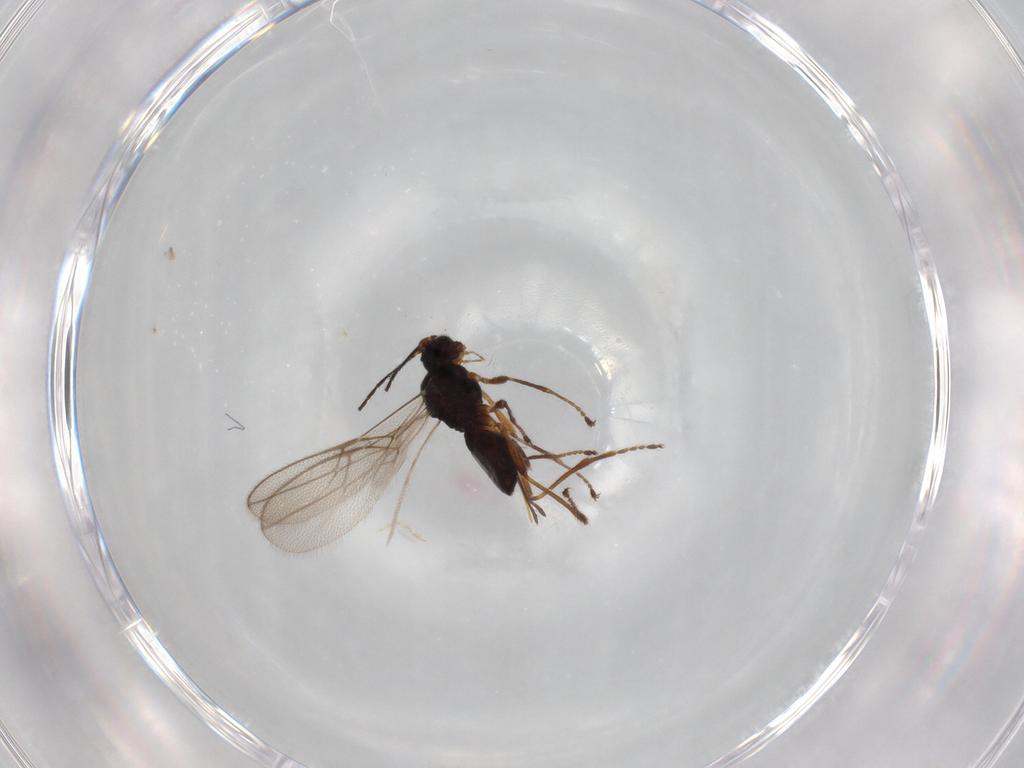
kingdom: Animalia
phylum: Arthropoda
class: Insecta
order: Hymenoptera
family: Braconidae
